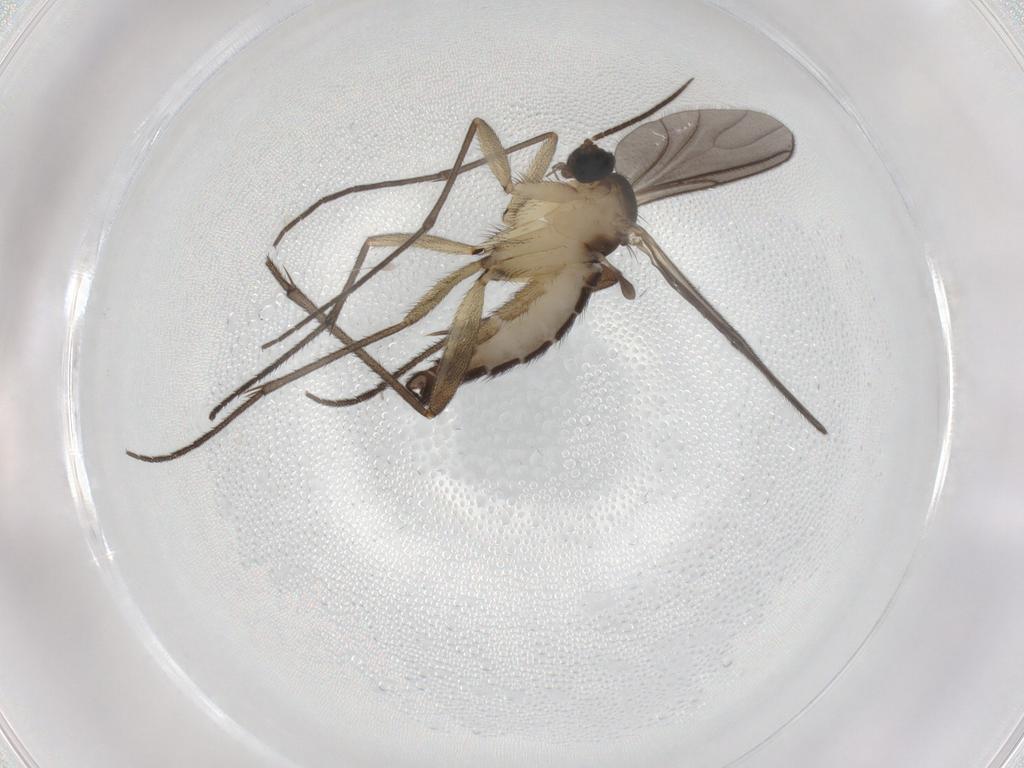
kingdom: Animalia
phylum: Arthropoda
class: Insecta
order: Diptera
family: Sciaridae
